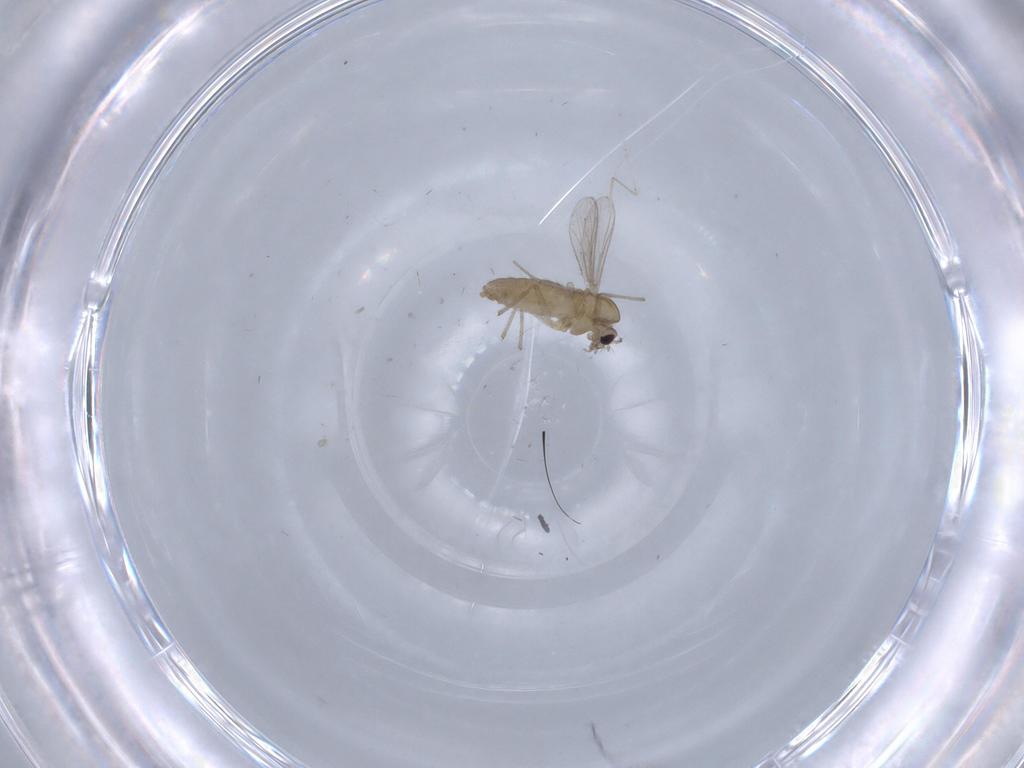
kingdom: Animalia
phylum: Arthropoda
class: Insecta
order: Diptera
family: Chironomidae
